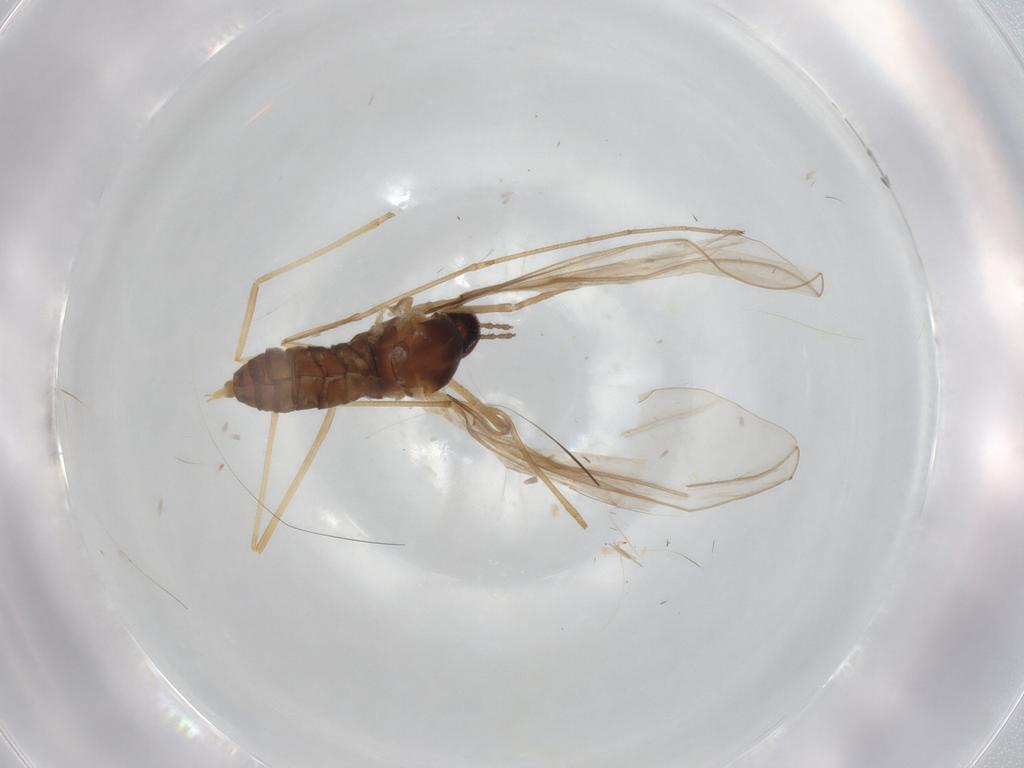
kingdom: Animalia
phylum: Arthropoda
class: Insecta
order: Diptera
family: Cecidomyiidae
